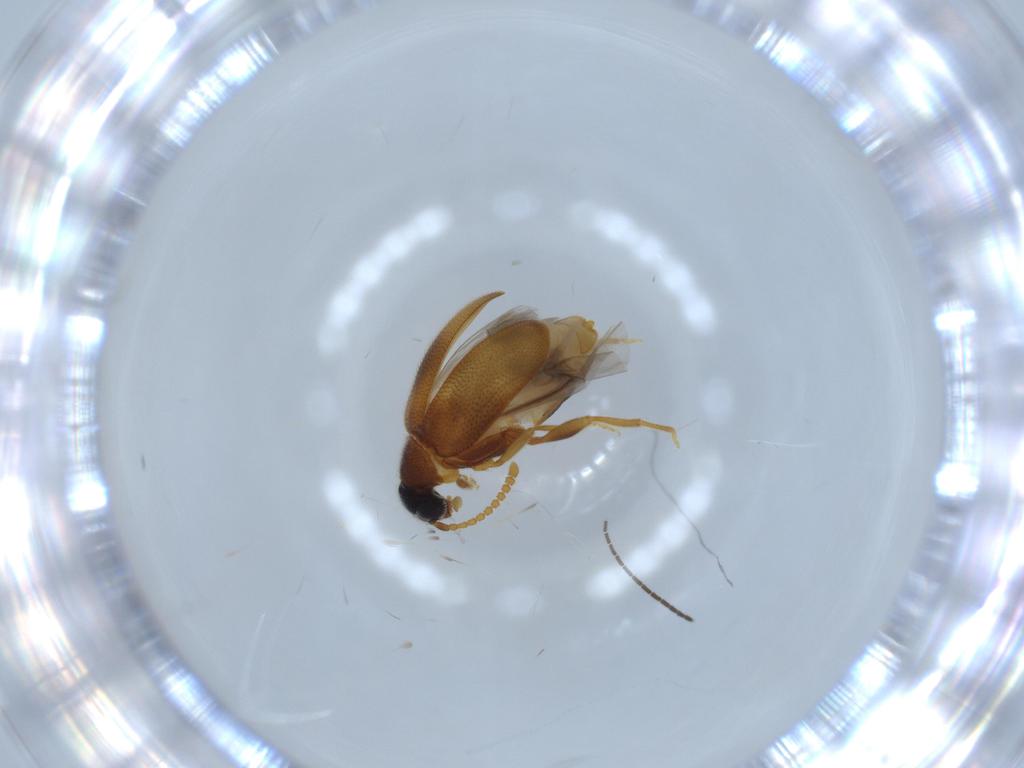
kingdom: Animalia
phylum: Arthropoda
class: Insecta
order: Coleoptera
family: Aderidae
